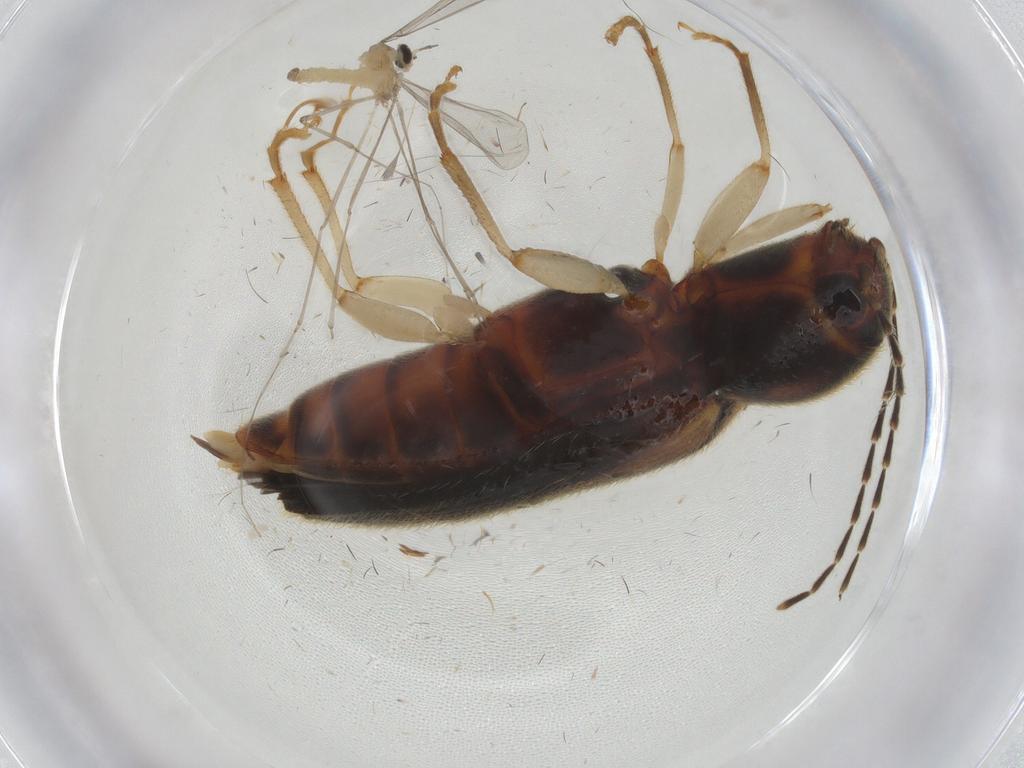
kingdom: Animalia
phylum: Arthropoda
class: Insecta
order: Coleoptera
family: Elateridae
